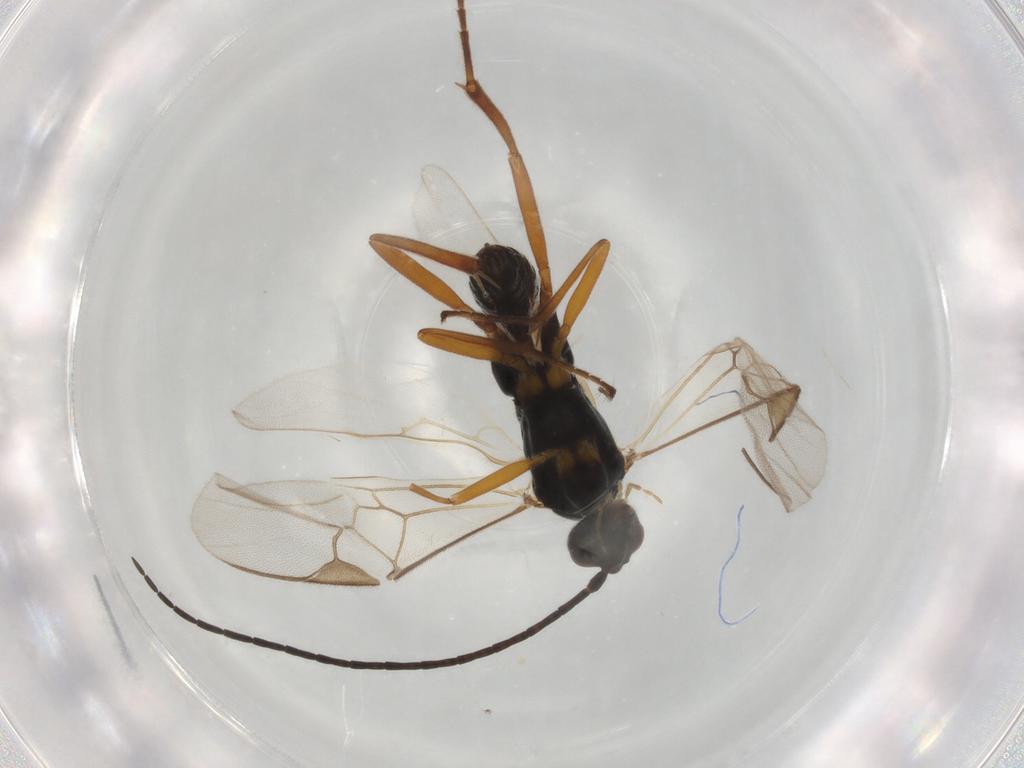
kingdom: Animalia
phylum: Arthropoda
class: Insecta
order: Hymenoptera
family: Braconidae
